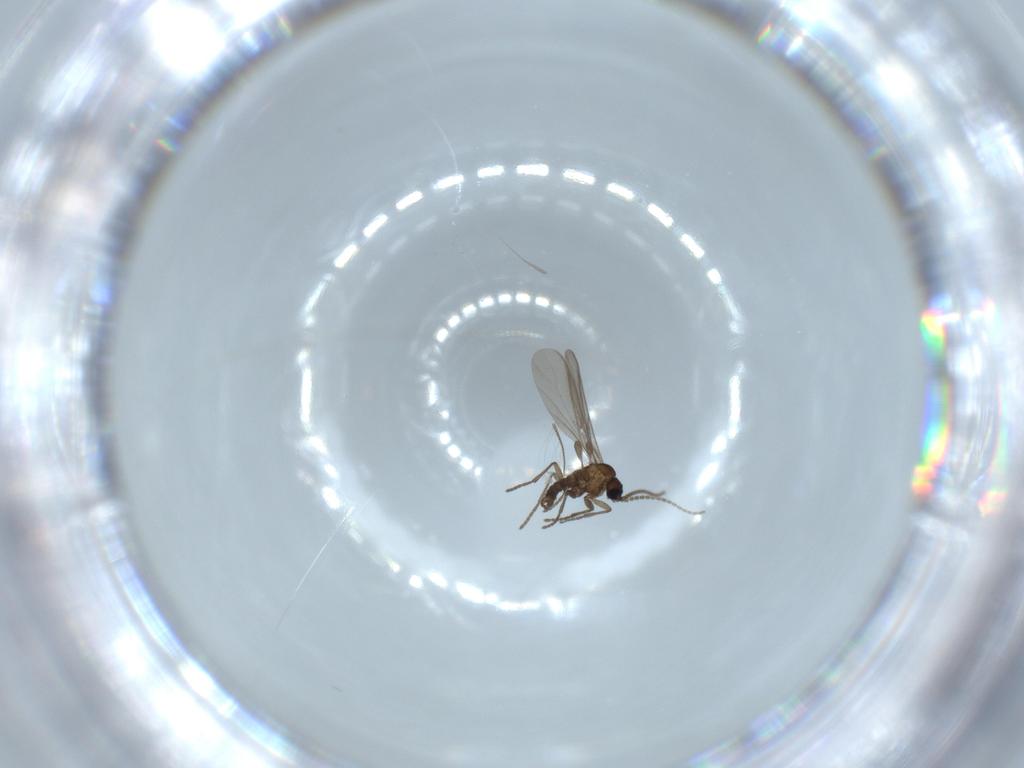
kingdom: Animalia
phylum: Arthropoda
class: Insecta
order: Diptera
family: Chironomidae
